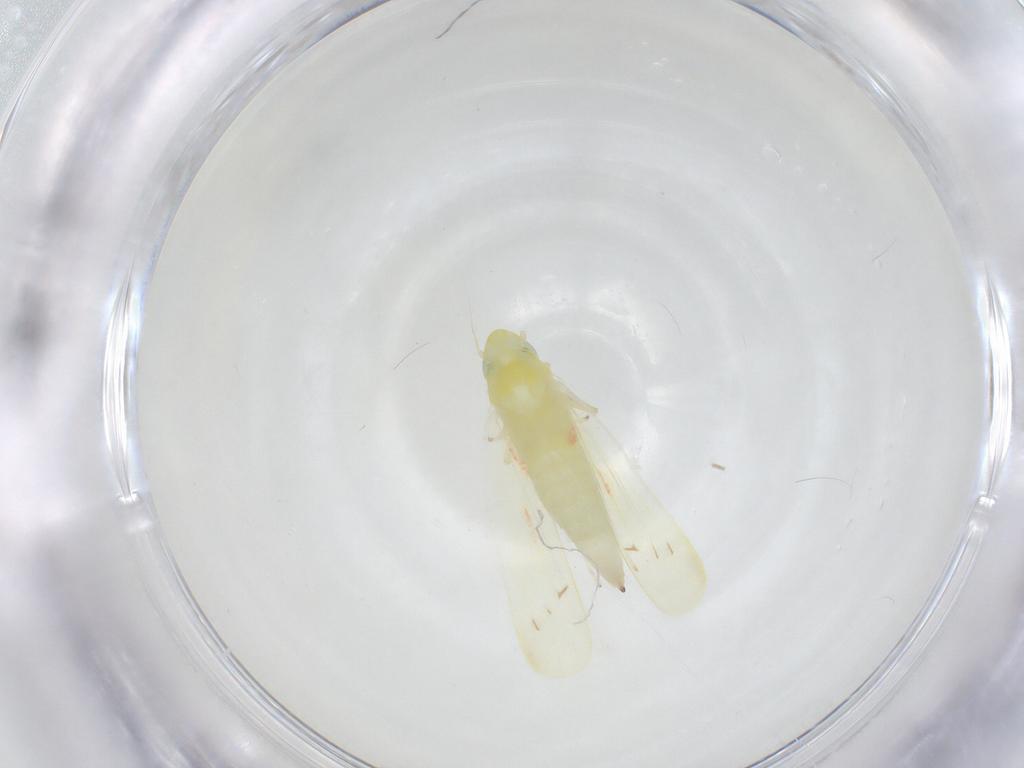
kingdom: Animalia
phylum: Arthropoda
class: Insecta
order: Hemiptera
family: Cicadellidae
